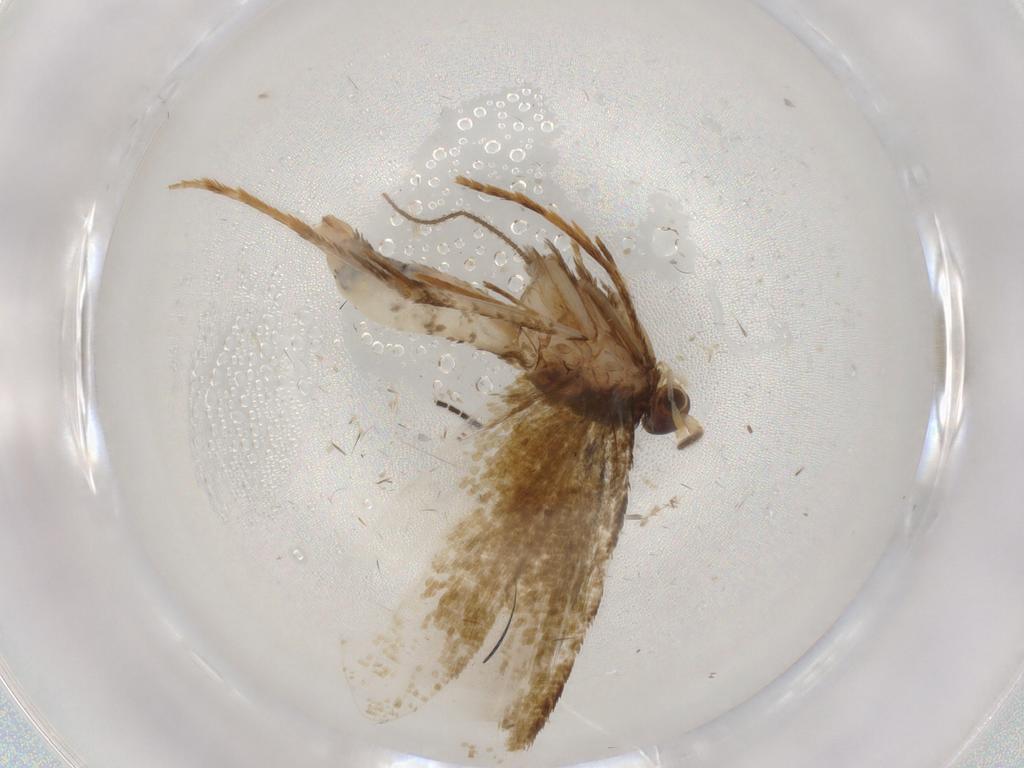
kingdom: Animalia
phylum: Arthropoda
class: Insecta
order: Lepidoptera
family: Tineidae
